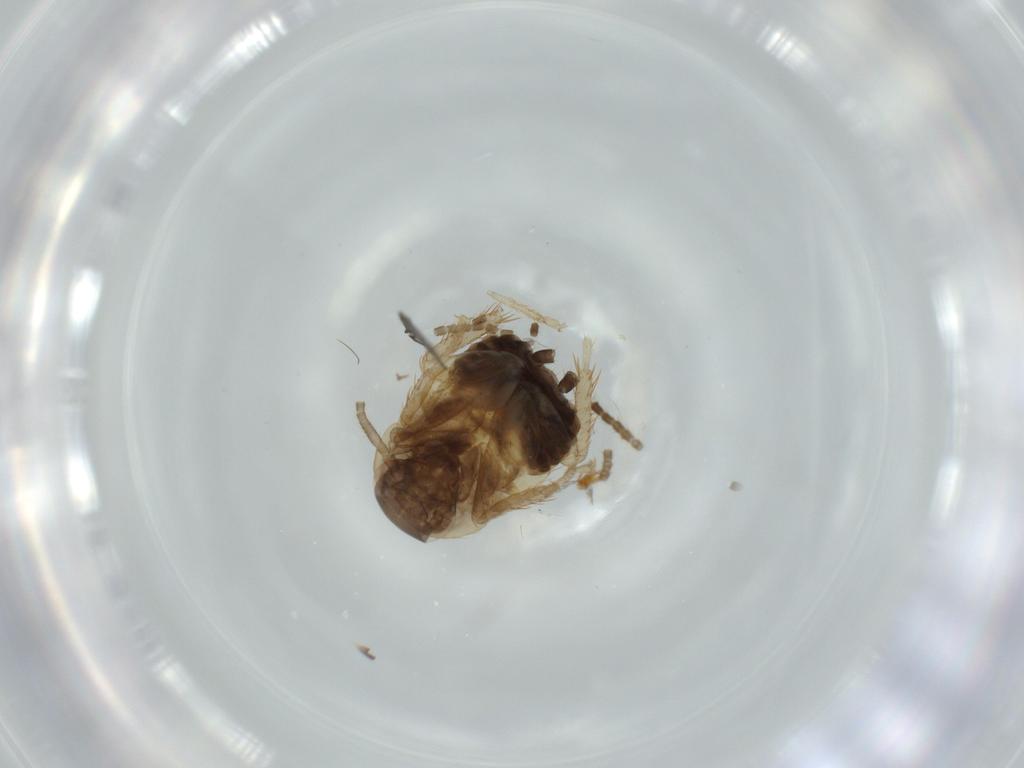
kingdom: Animalia
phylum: Arthropoda
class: Insecta
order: Blattodea
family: Ectobiidae
